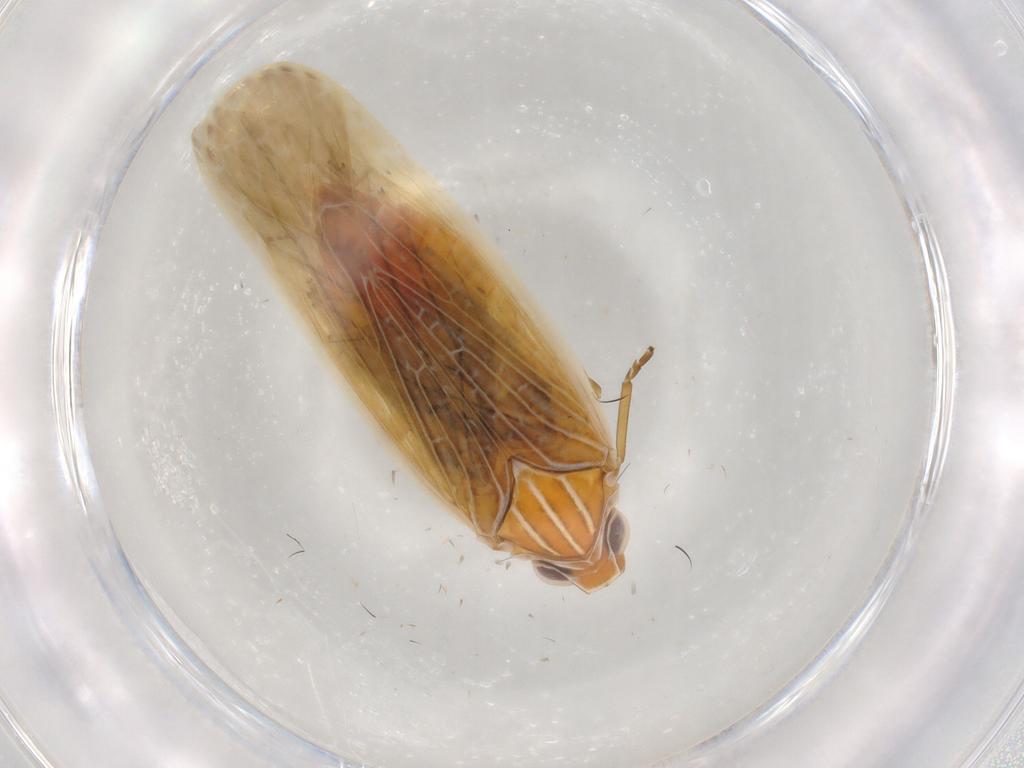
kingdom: Animalia
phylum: Arthropoda
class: Insecta
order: Hemiptera
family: Achilidae
